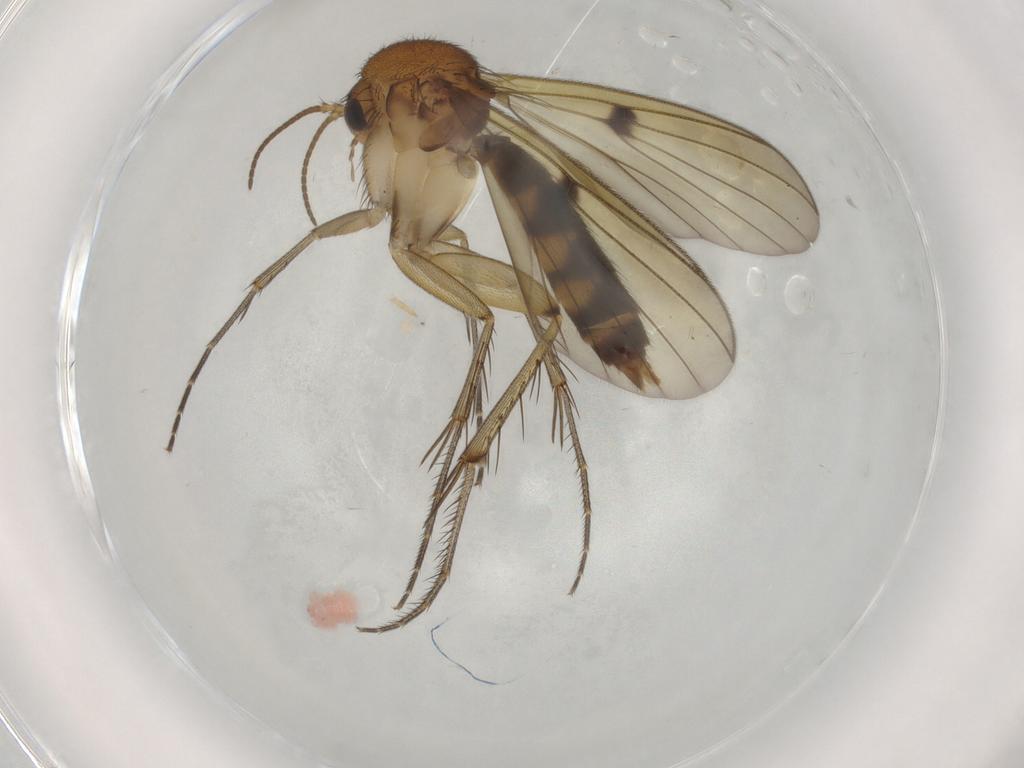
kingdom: Animalia
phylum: Arthropoda
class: Insecta
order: Diptera
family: Mycetophilidae
